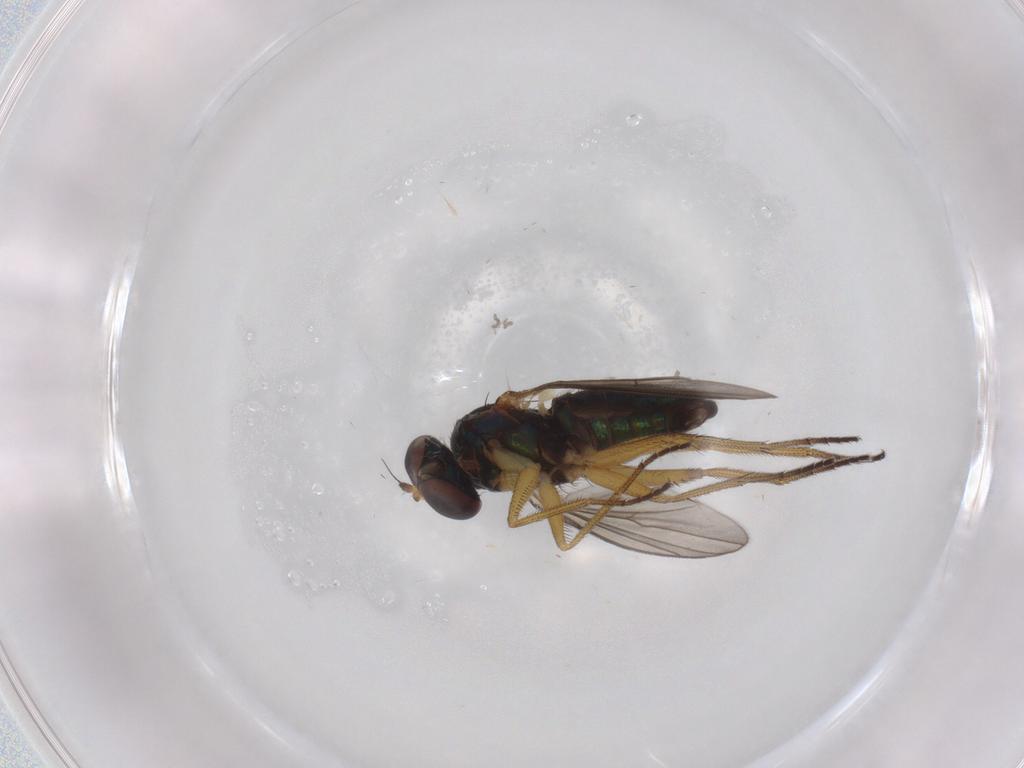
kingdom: Animalia
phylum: Arthropoda
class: Insecta
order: Diptera
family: Dolichopodidae
